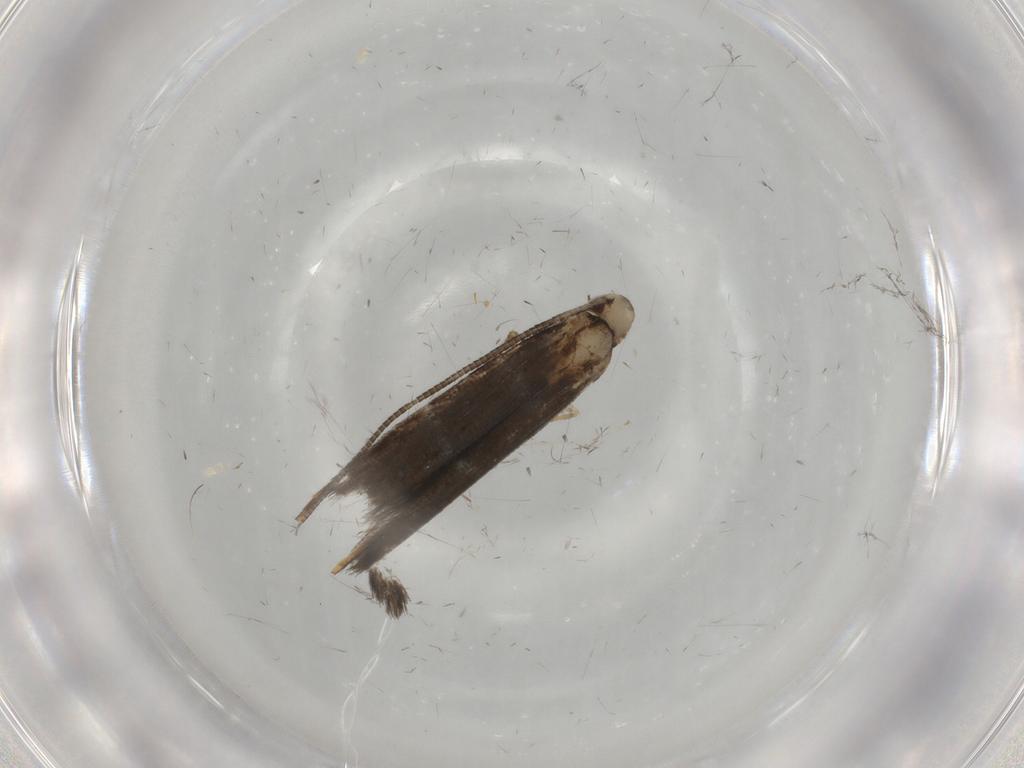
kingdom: Animalia
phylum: Arthropoda
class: Insecta
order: Lepidoptera
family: Gracillariidae
